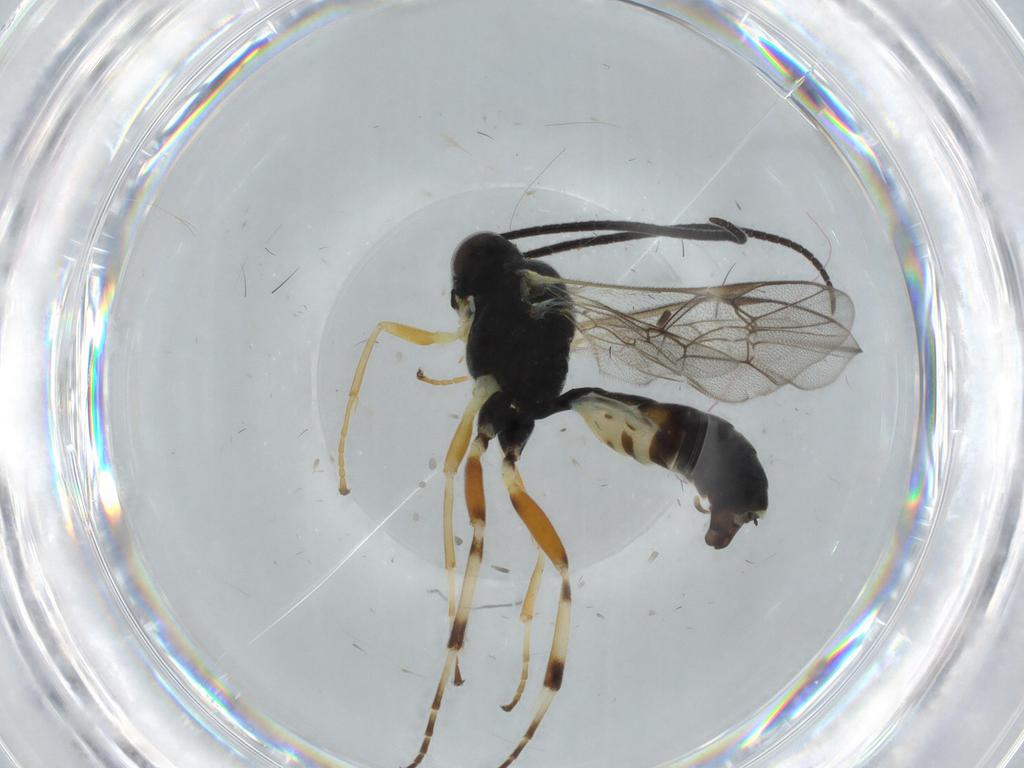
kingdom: Animalia
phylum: Arthropoda
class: Insecta
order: Hymenoptera
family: Ichneumonidae
